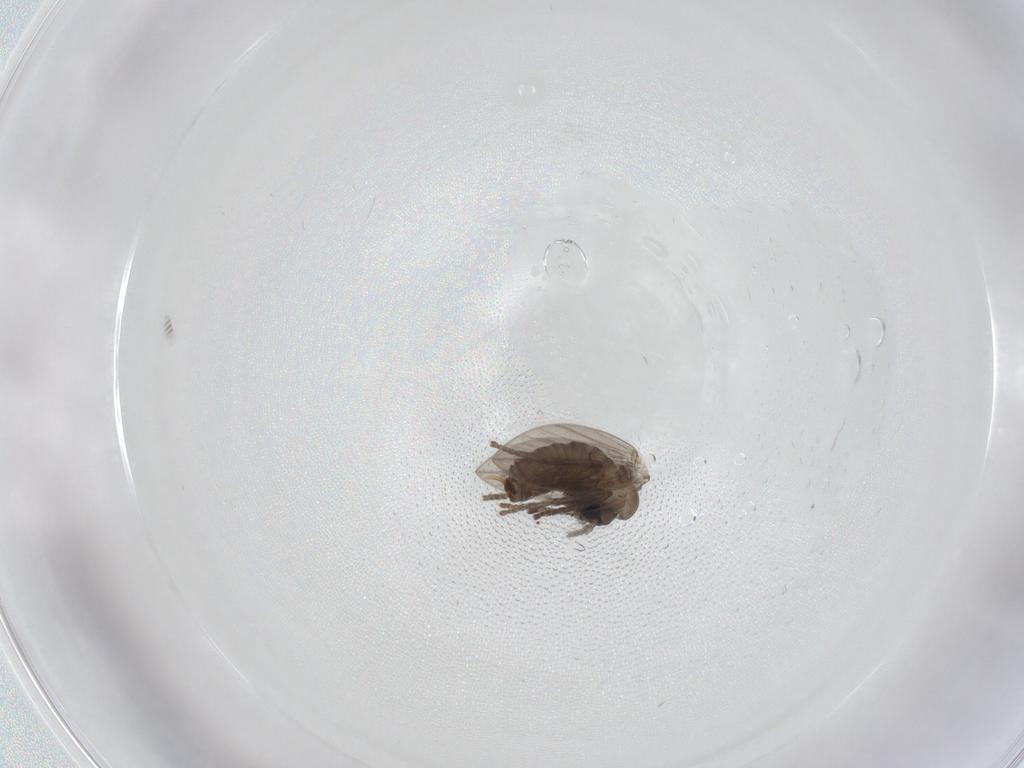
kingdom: Animalia
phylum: Arthropoda
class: Insecta
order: Diptera
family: Psychodidae
